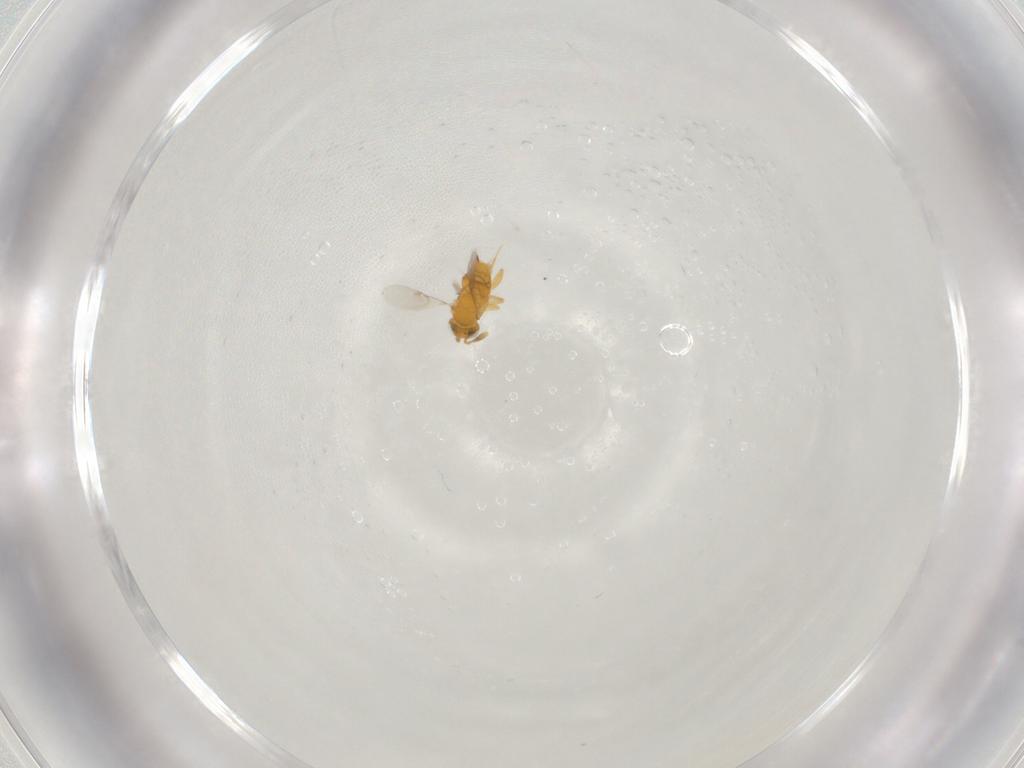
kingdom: Animalia
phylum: Arthropoda
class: Insecta
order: Hymenoptera
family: Encyrtidae
